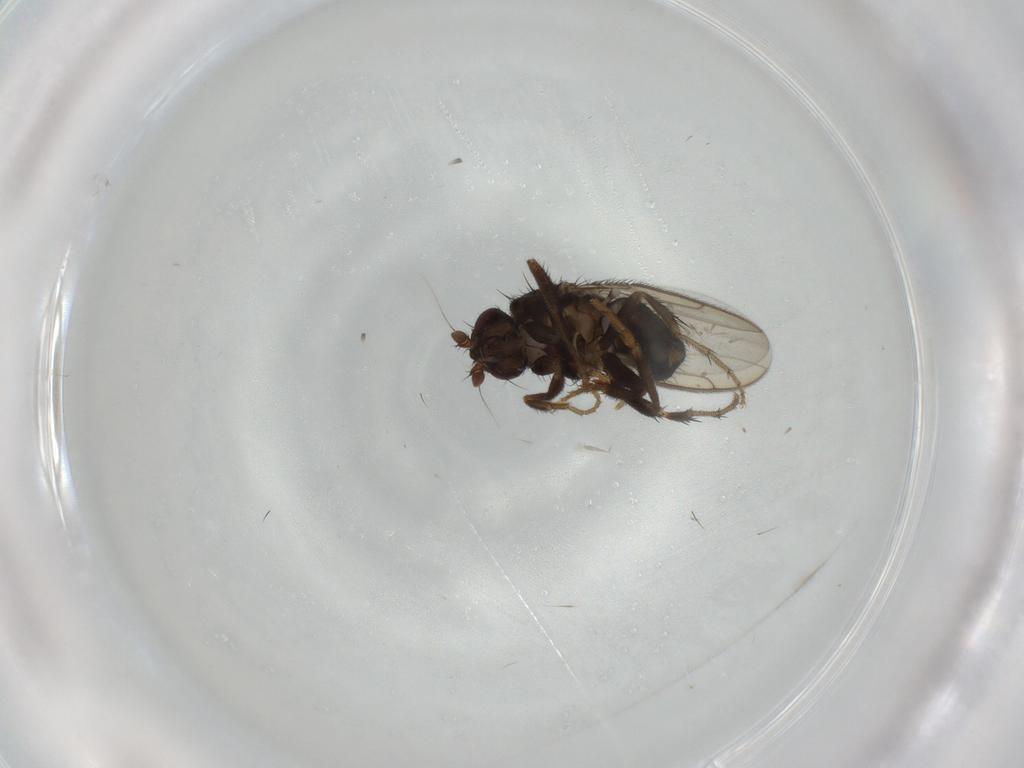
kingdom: Animalia
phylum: Arthropoda
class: Insecta
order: Diptera
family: Sphaeroceridae
